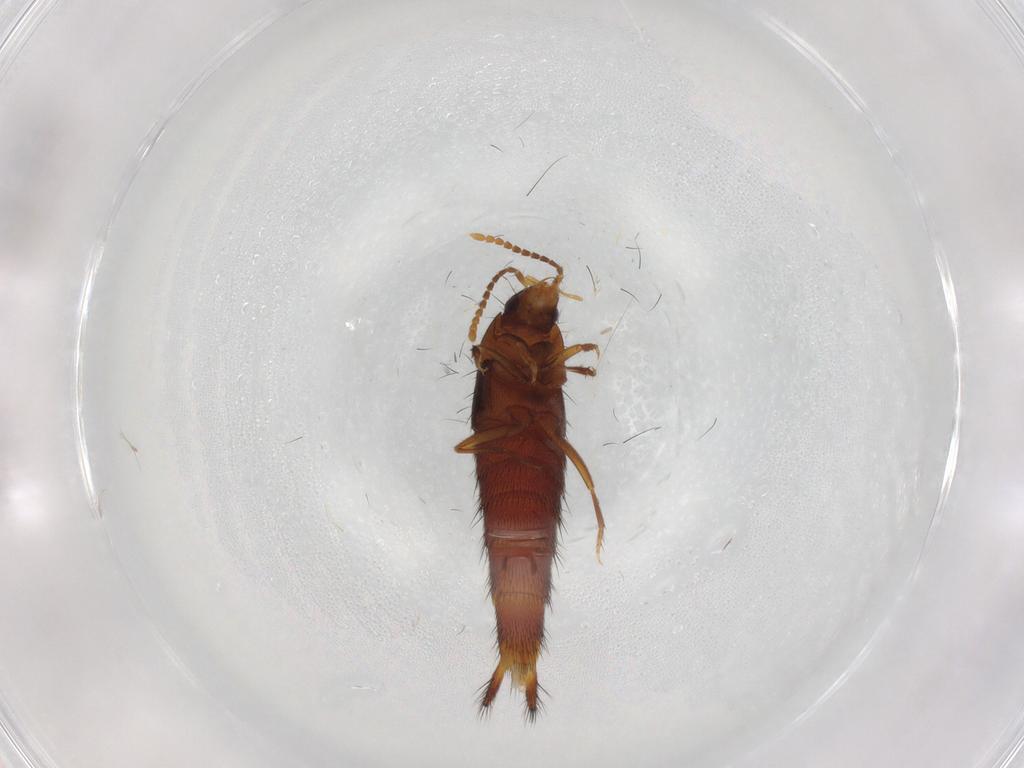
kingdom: Animalia
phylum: Arthropoda
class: Insecta
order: Coleoptera
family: Staphylinidae
